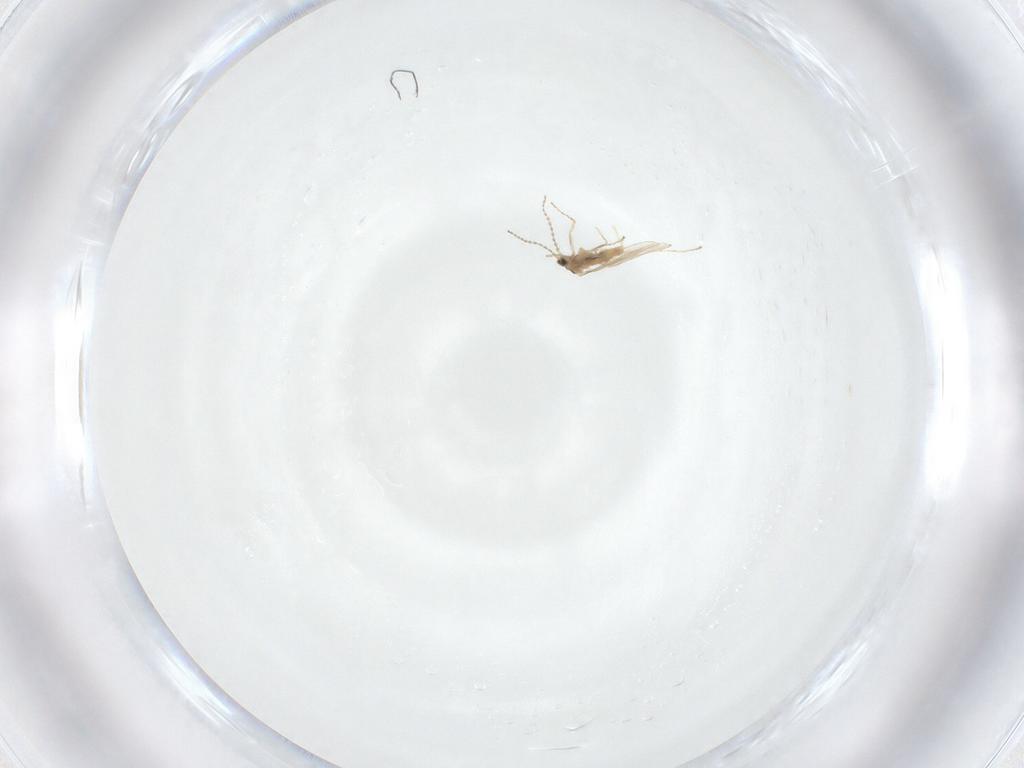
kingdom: Animalia
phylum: Arthropoda
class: Insecta
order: Diptera
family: Cecidomyiidae
